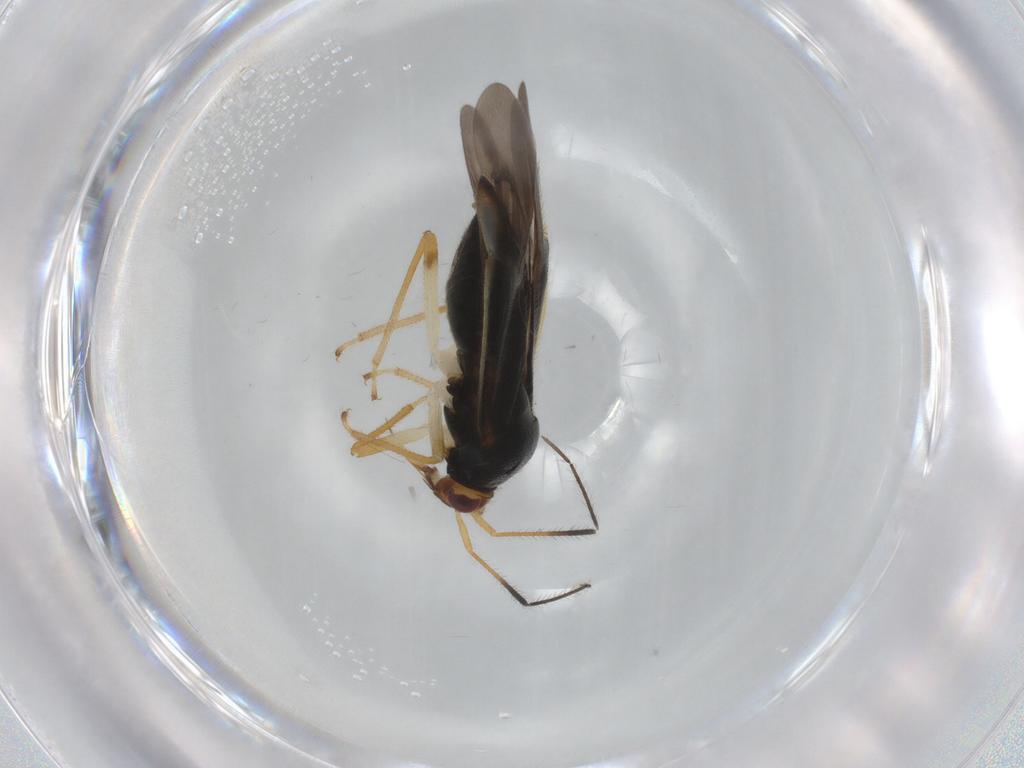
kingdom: Animalia
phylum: Arthropoda
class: Insecta
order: Hemiptera
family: Miridae
